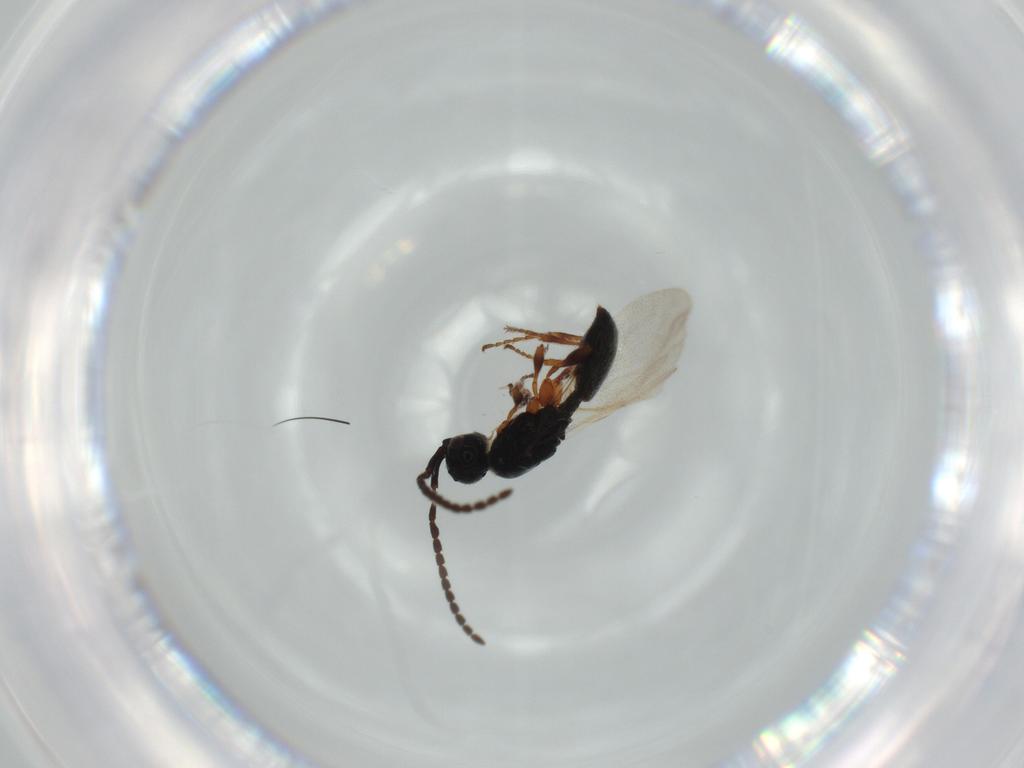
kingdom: Animalia
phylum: Arthropoda
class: Insecta
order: Hymenoptera
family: Diapriidae
